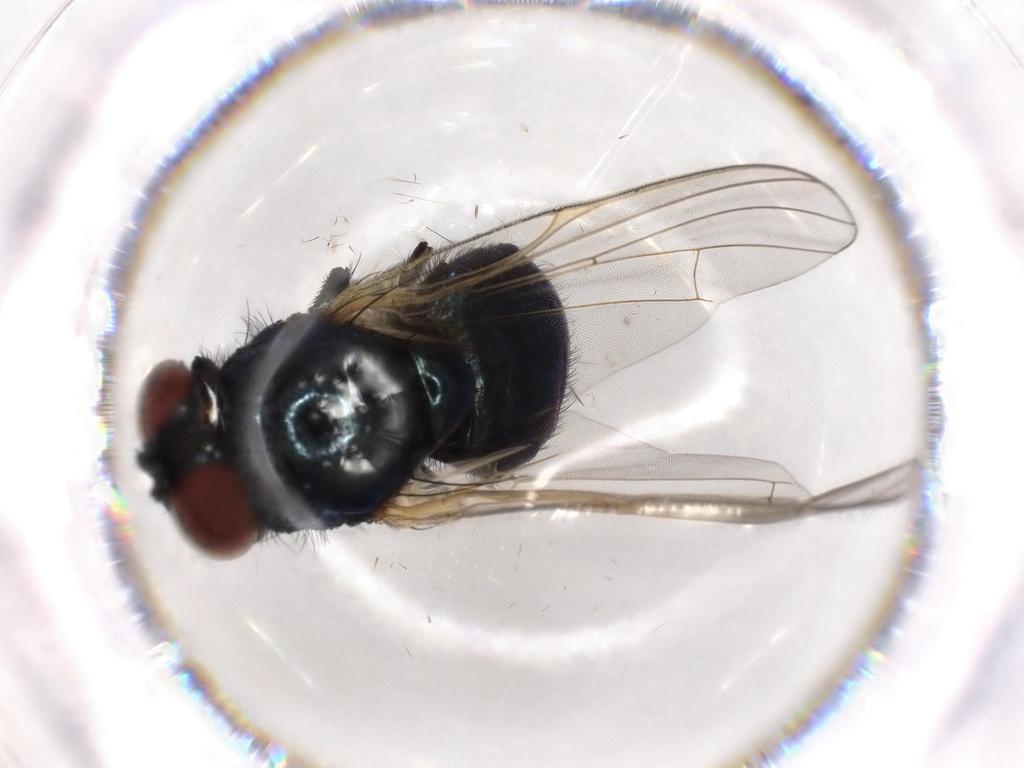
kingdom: Animalia
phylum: Arthropoda
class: Insecta
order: Diptera
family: Lonchaeidae
